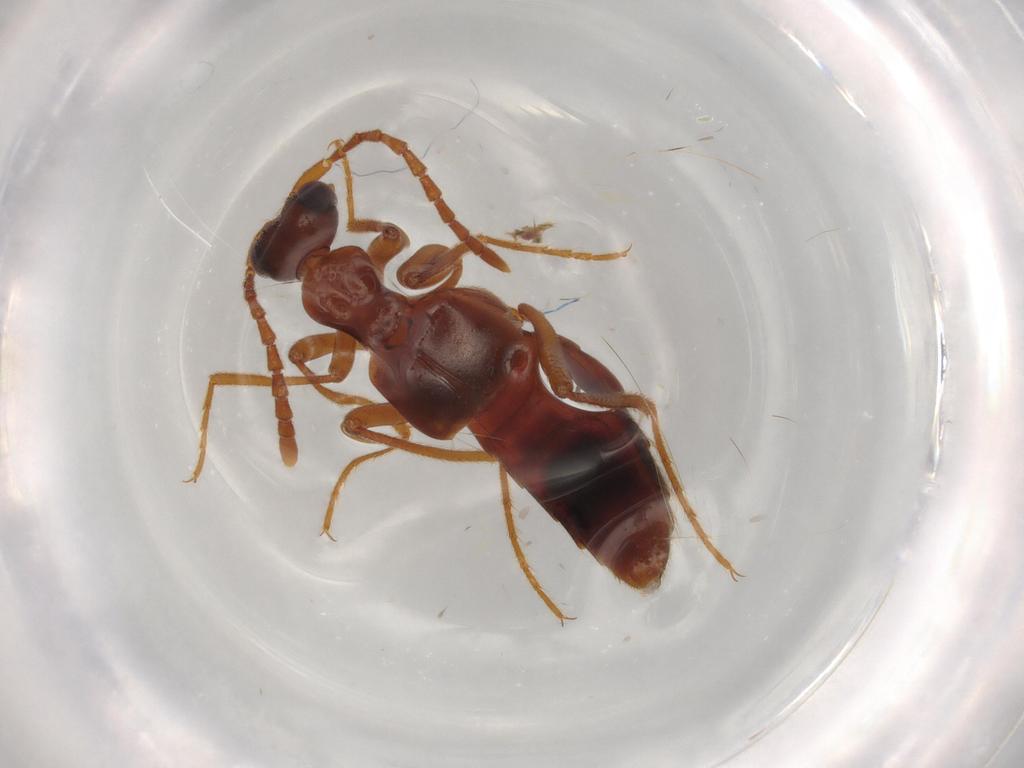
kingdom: Animalia
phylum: Arthropoda
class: Insecta
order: Coleoptera
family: Staphylinidae
